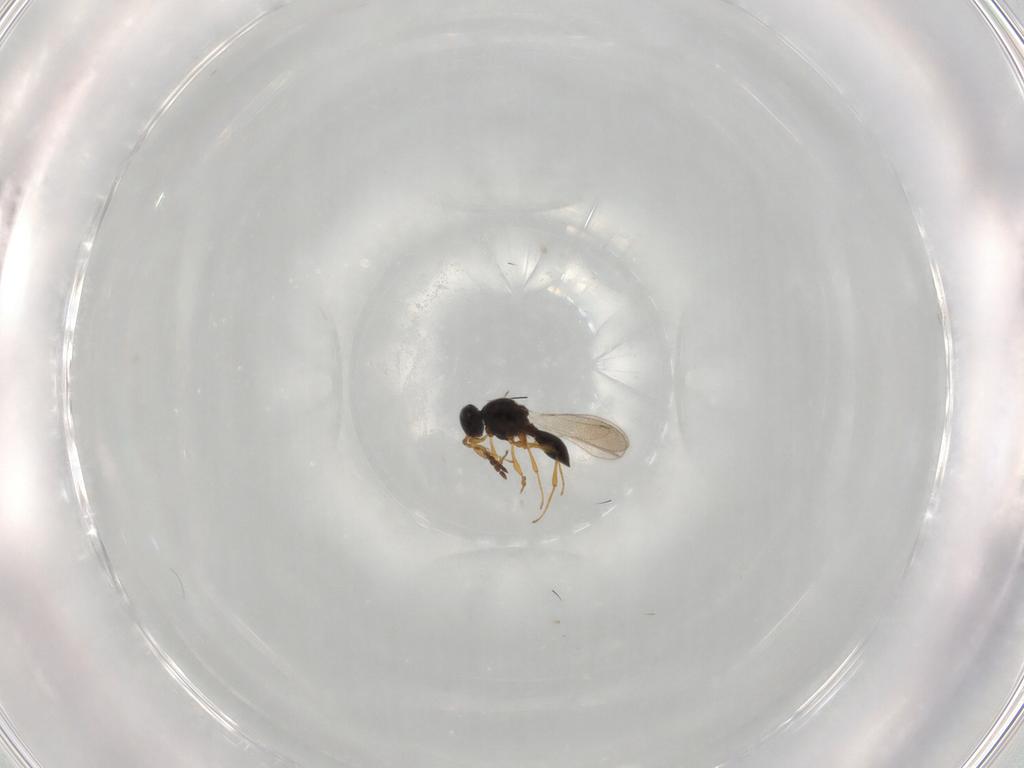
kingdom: Animalia
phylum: Arthropoda
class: Insecta
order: Hymenoptera
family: Platygastridae
